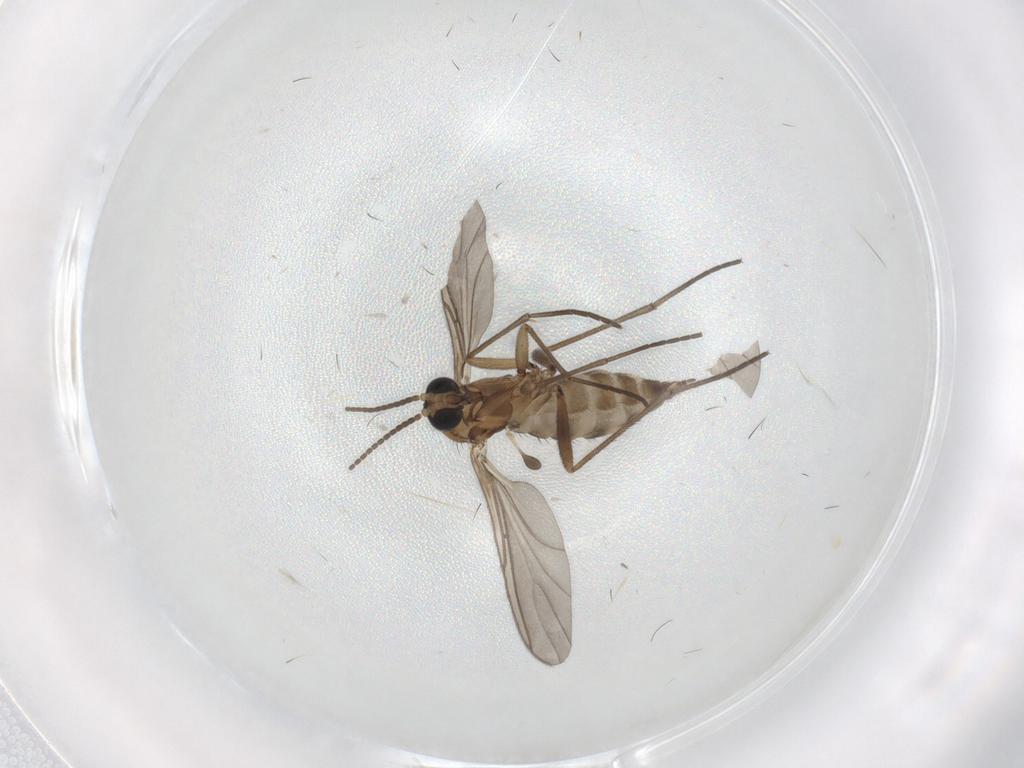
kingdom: Animalia
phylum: Arthropoda
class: Insecta
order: Diptera
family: Sciaridae
